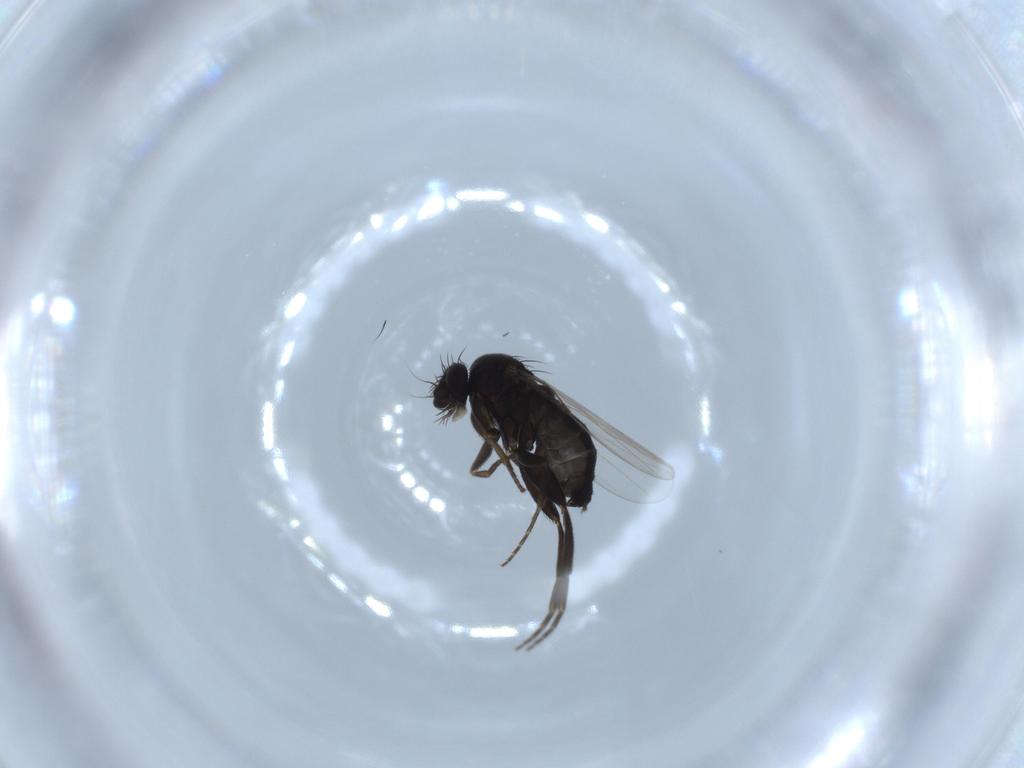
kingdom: Animalia
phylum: Arthropoda
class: Insecta
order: Diptera
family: Phoridae
